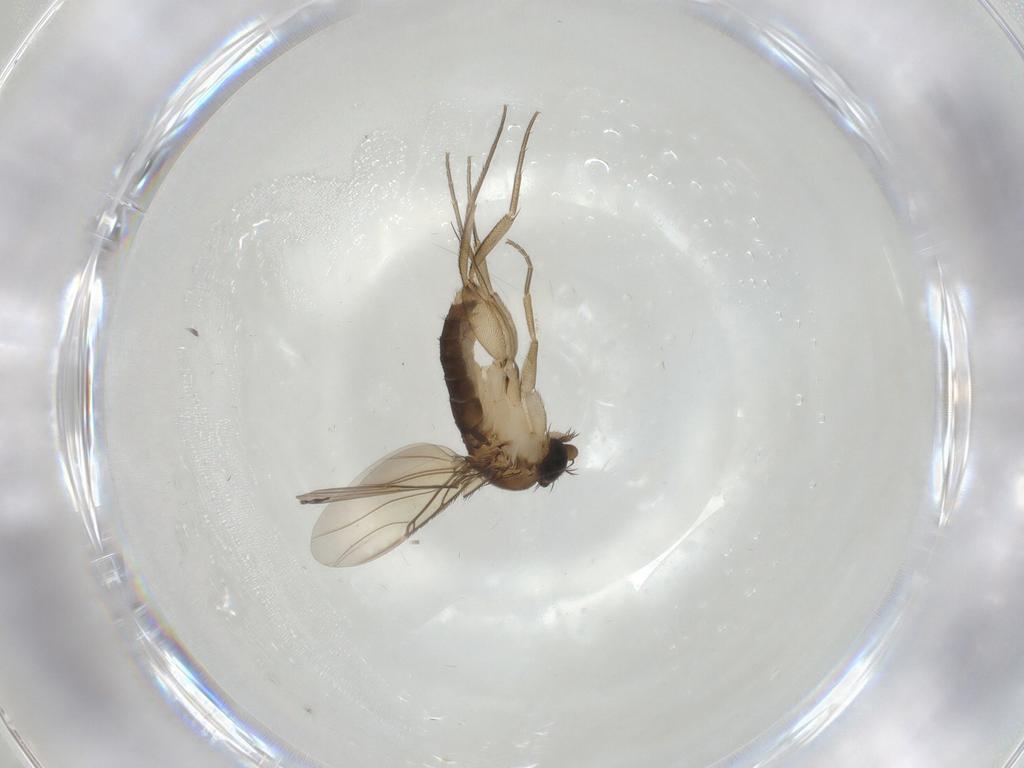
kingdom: Animalia
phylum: Arthropoda
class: Insecta
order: Diptera
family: Phoridae
